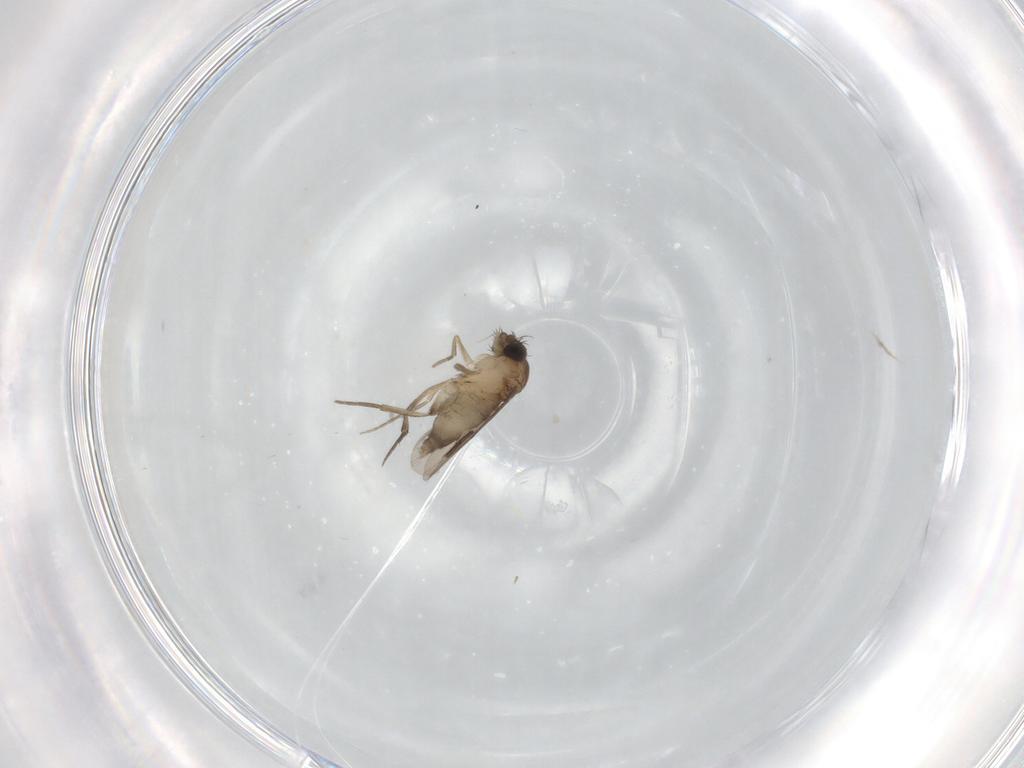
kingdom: Animalia
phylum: Arthropoda
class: Insecta
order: Diptera
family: Phoridae
